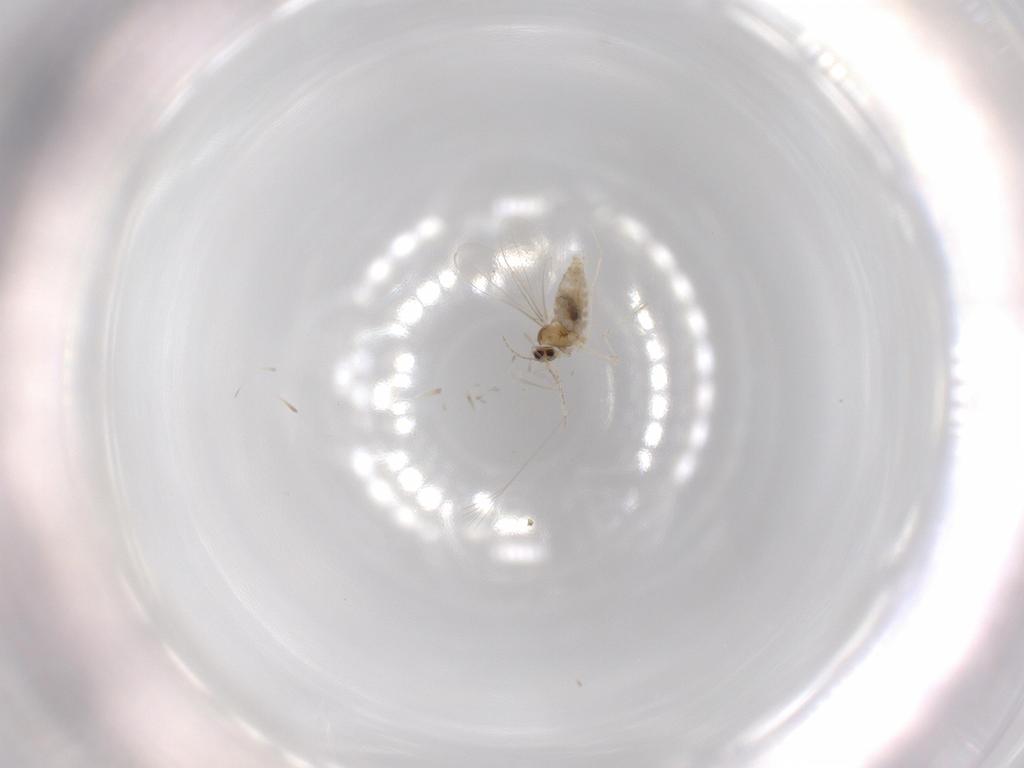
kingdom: Animalia
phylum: Arthropoda
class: Insecta
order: Diptera
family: Cecidomyiidae
